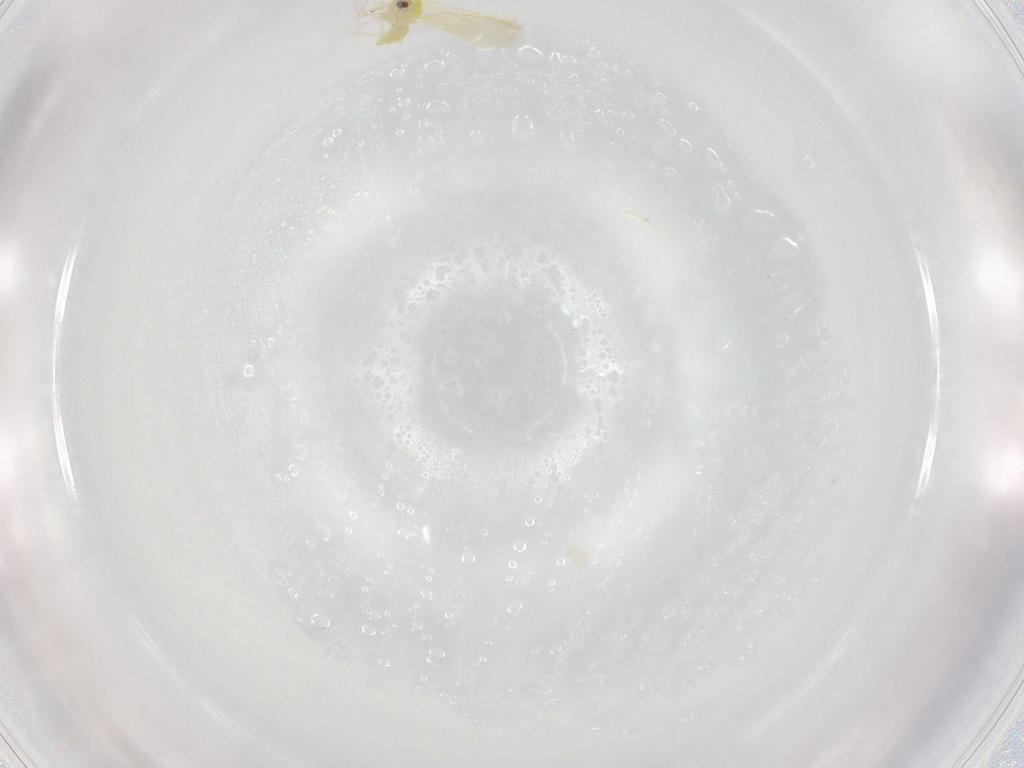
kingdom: Animalia
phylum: Arthropoda
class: Insecta
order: Hemiptera
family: Aleyrodidae
